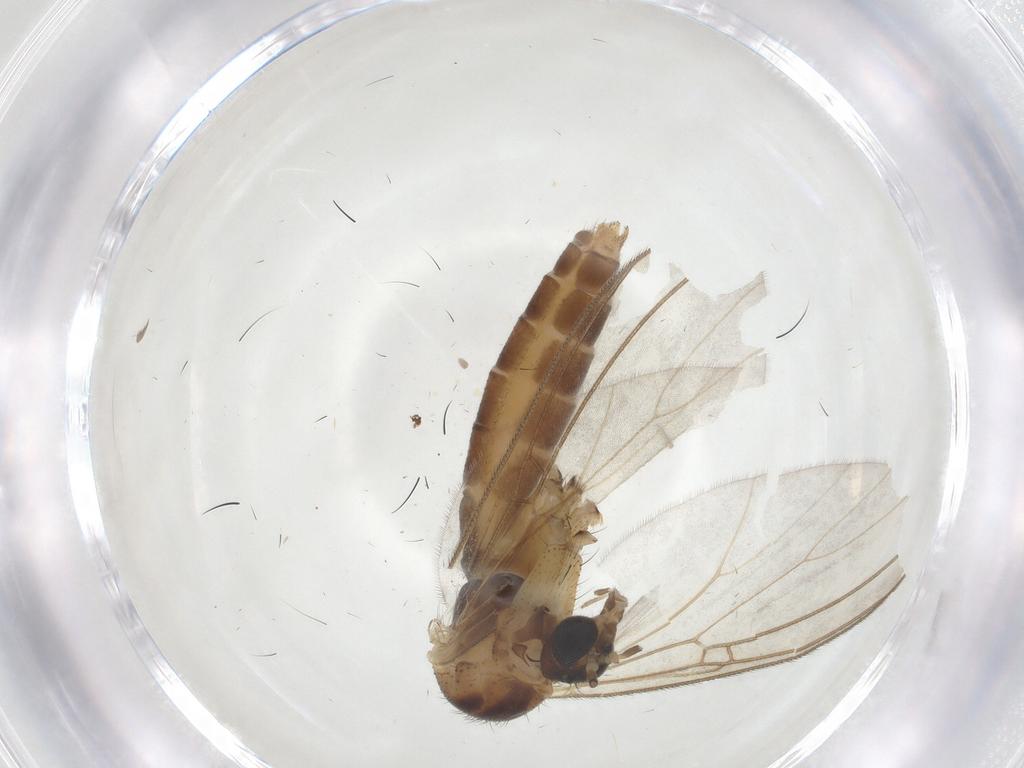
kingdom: Animalia
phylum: Arthropoda
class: Insecta
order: Diptera
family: Mycetophilidae
